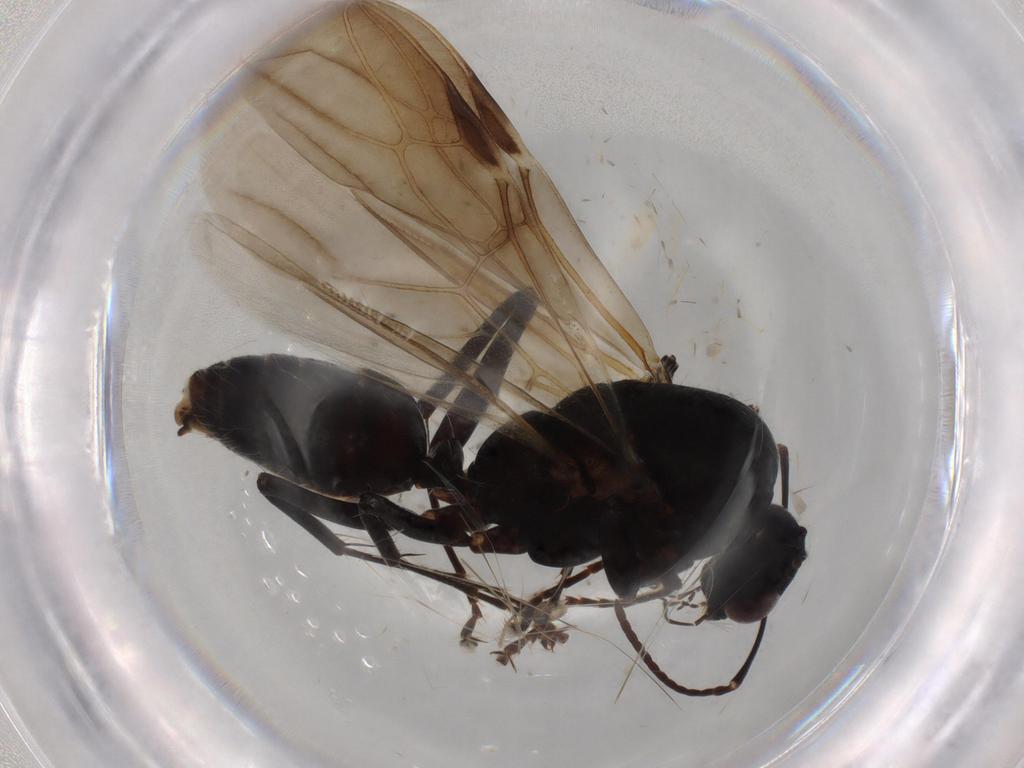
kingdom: Animalia
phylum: Arthropoda
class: Insecta
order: Hymenoptera
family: Formicidae
